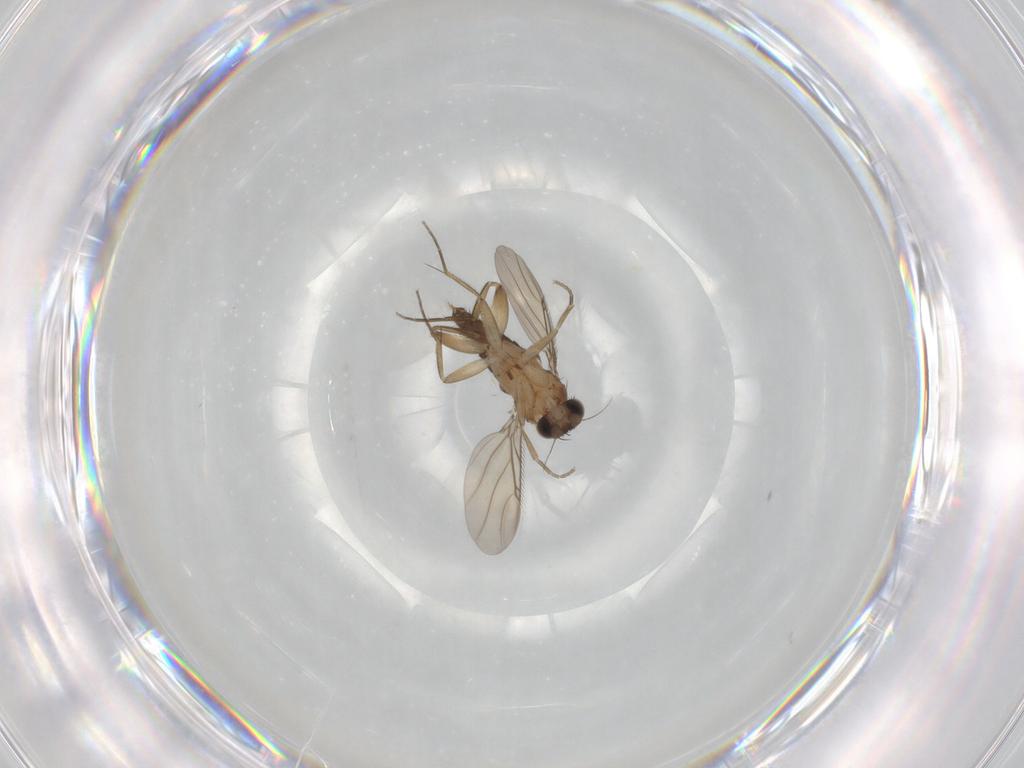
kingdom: Animalia
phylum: Arthropoda
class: Insecta
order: Diptera
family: Phoridae
